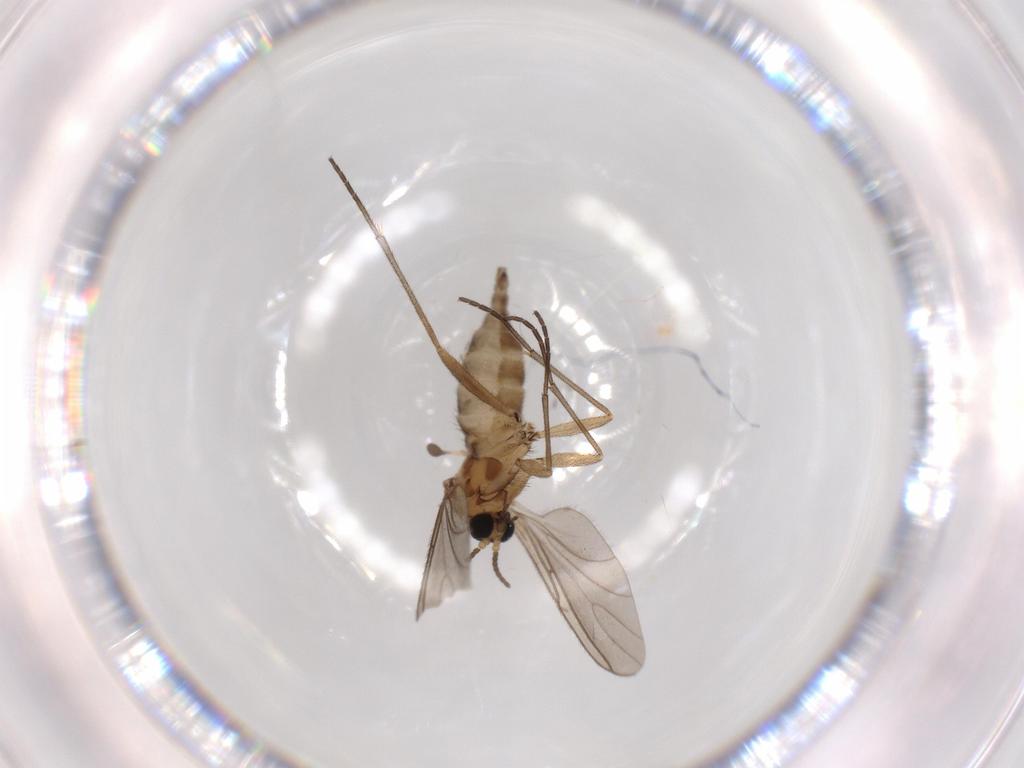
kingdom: Animalia
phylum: Arthropoda
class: Insecta
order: Diptera
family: Sciaridae
